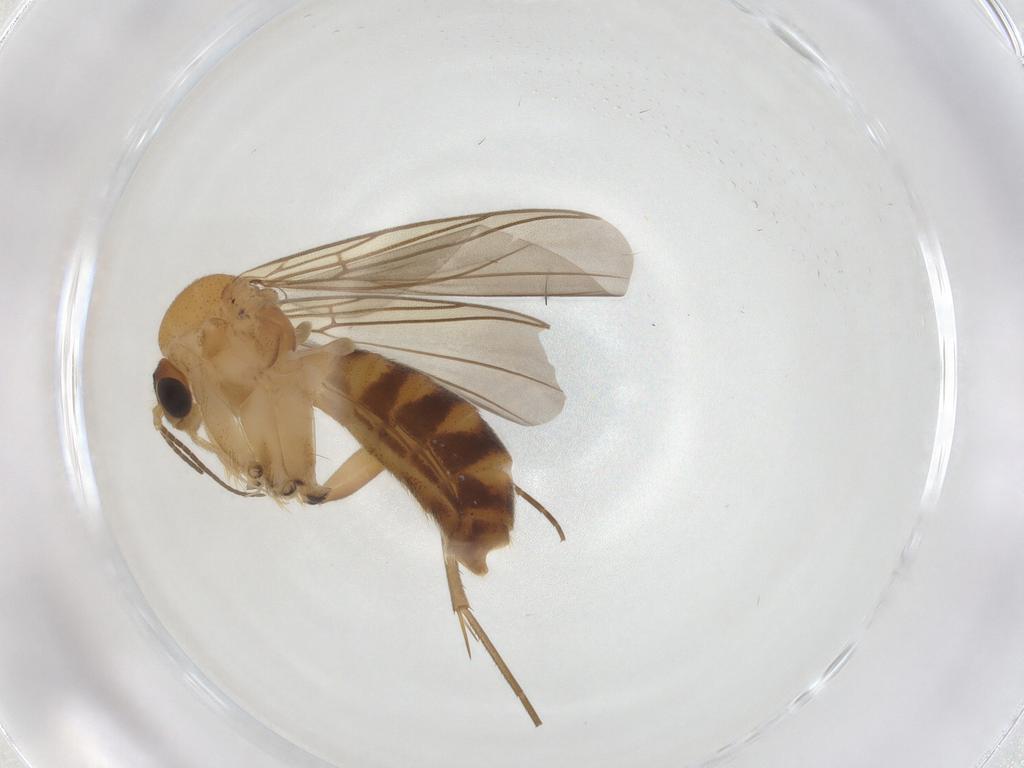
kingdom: Animalia
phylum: Arthropoda
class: Insecta
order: Diptera
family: Mycetophilidae
